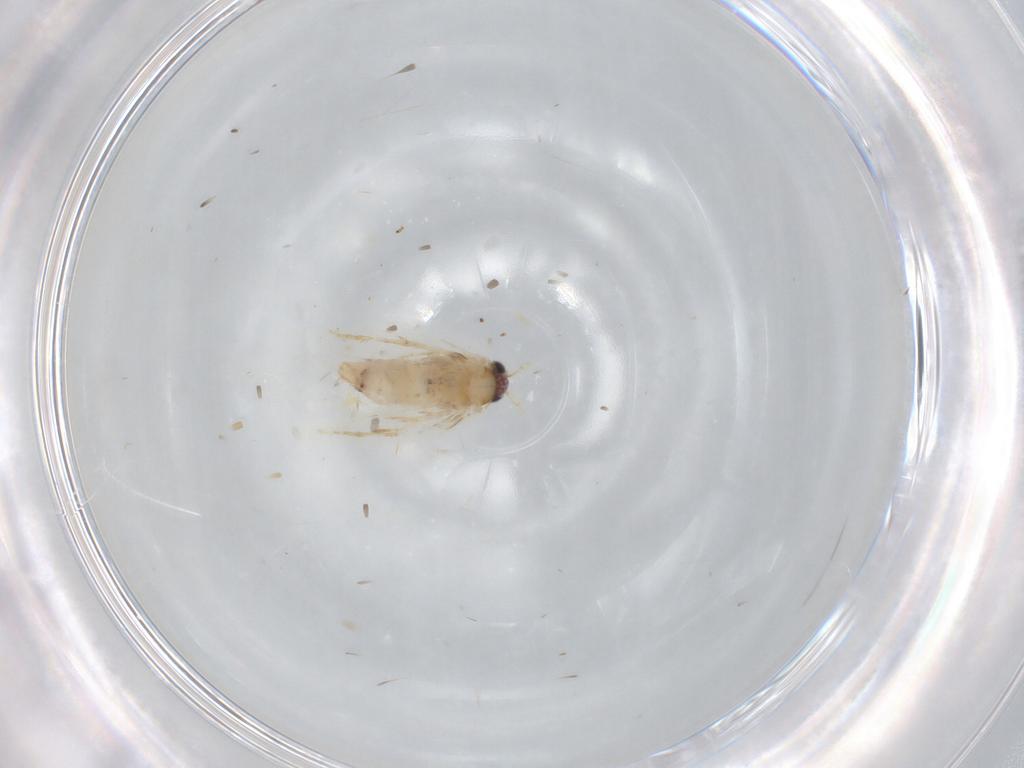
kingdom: Animalia
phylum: Arthropoda
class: Insecta
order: Lepidoptera
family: Nepticulidae
